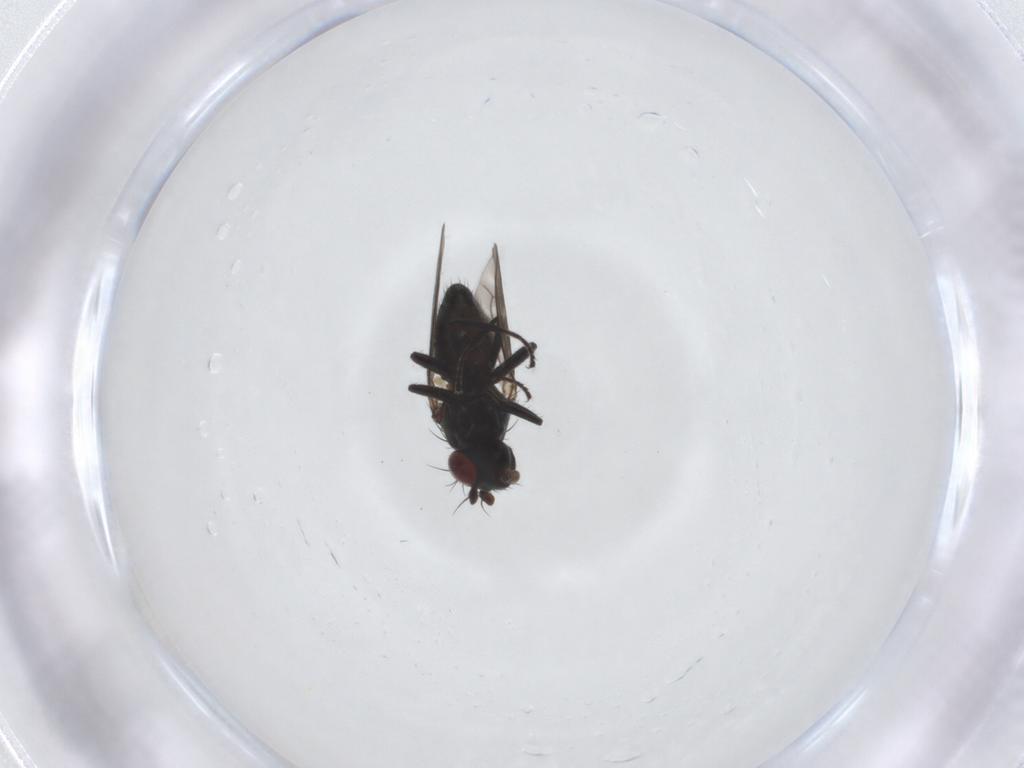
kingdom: Animalia
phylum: Arthropoda
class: Insecta
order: Diptera
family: Ephydridae
